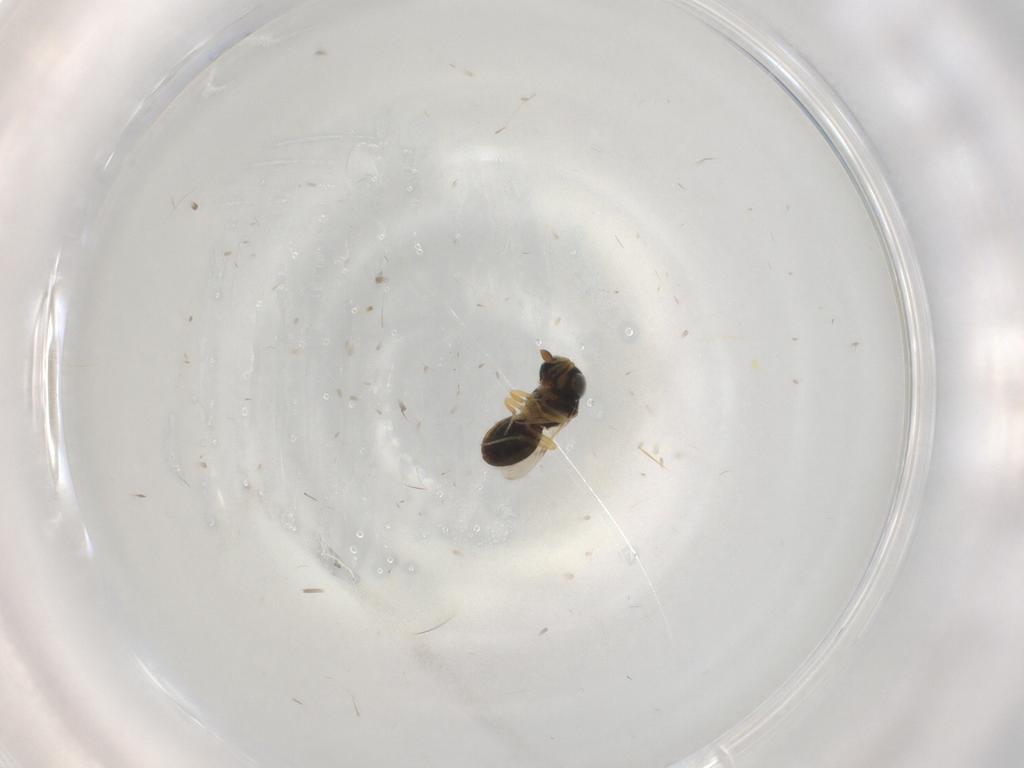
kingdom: Animalia
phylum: Arthropoda
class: Insecta
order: Hymenoptera
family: Scelionidae
